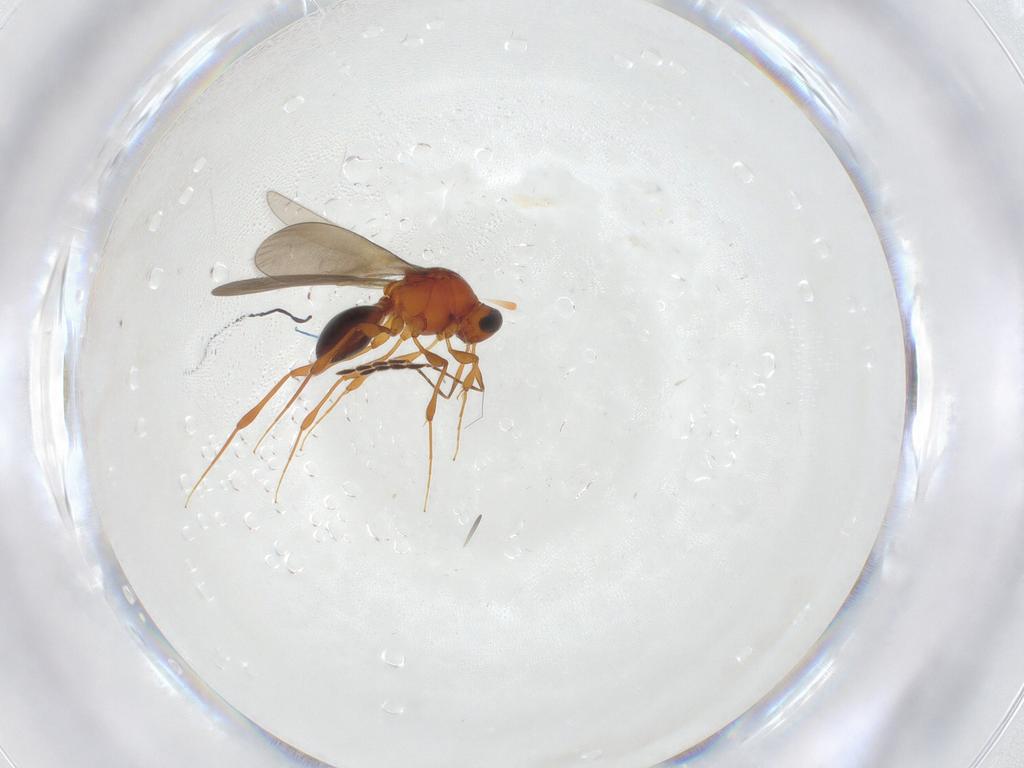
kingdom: Animalia
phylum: Arthropoda
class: Insecta
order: Hymenoptera
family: Platygastridae
